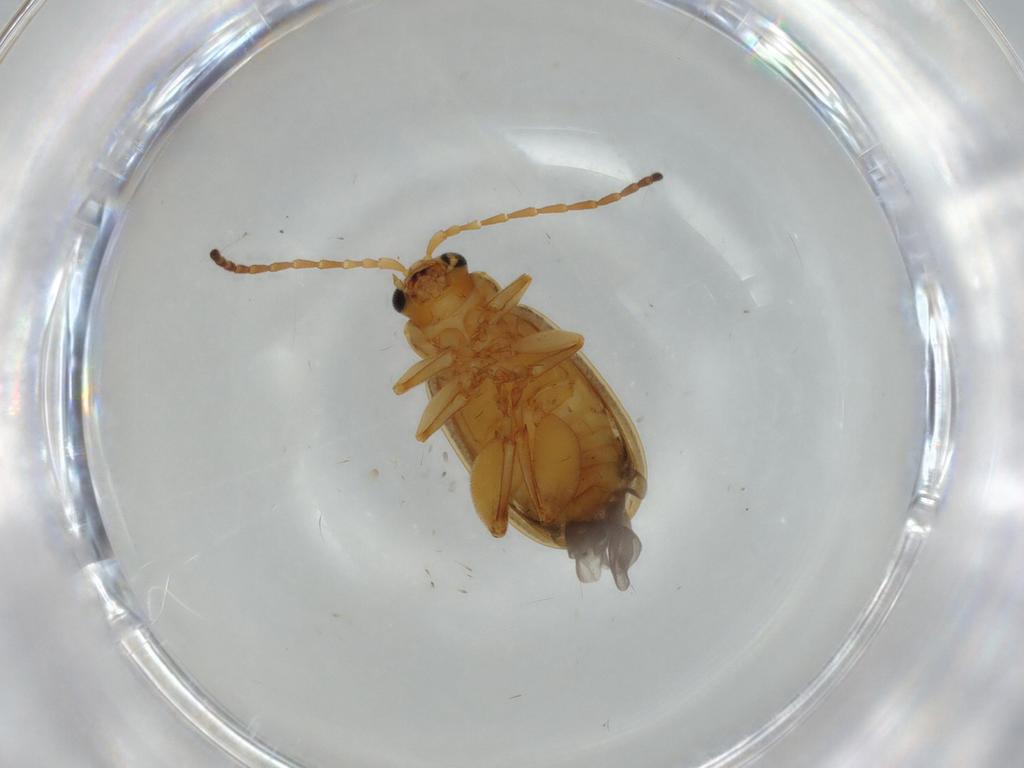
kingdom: Animalia
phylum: Arthropoda
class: Insecta
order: Coleoptera
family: Chrysomelidae
